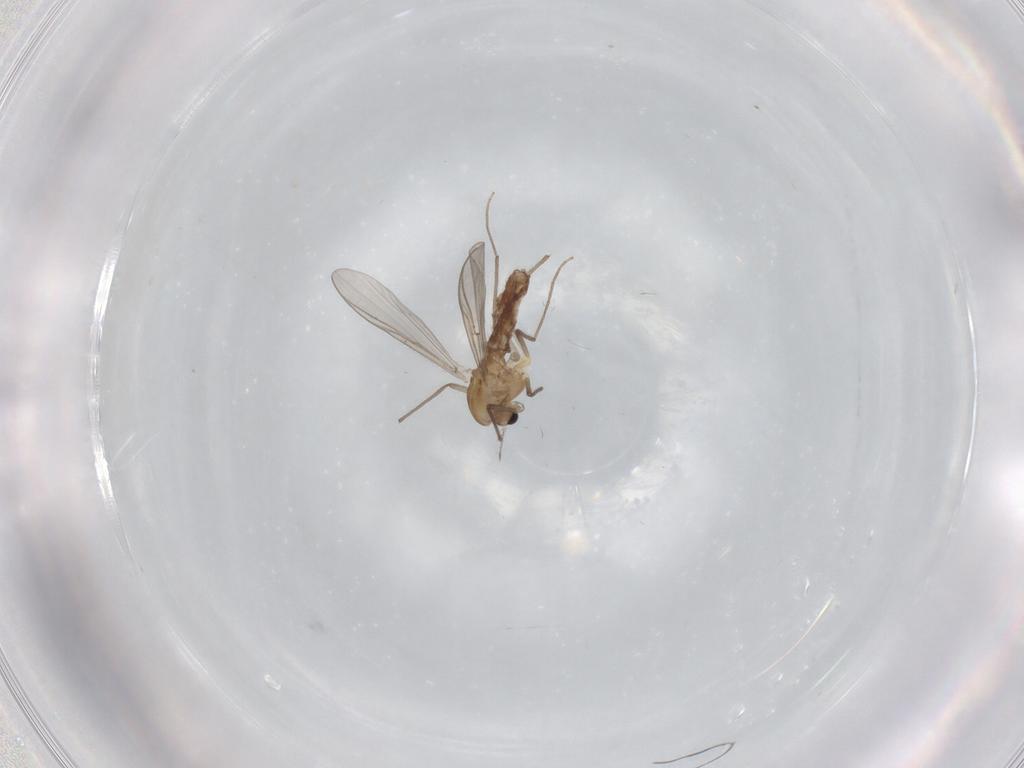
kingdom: Animalia
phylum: Arthropoda
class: Insecta
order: Diptera
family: Chironomidae
